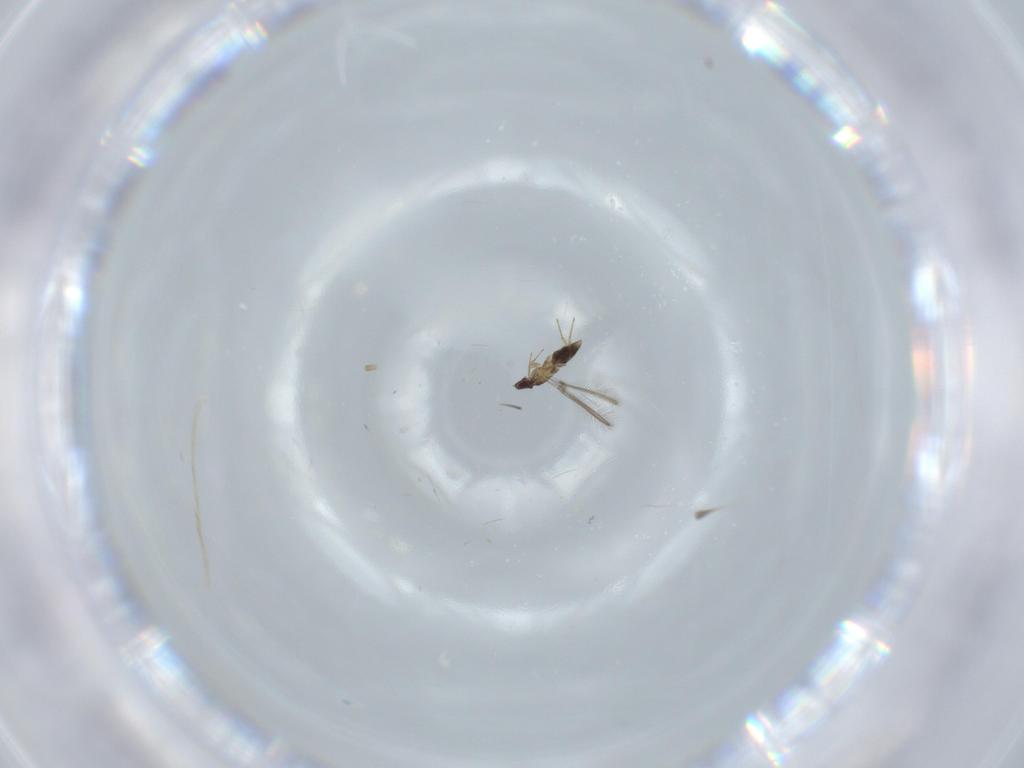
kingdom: Animalia
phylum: Arthropoda
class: Insecta
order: Hymenoptera
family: Mymaridae
